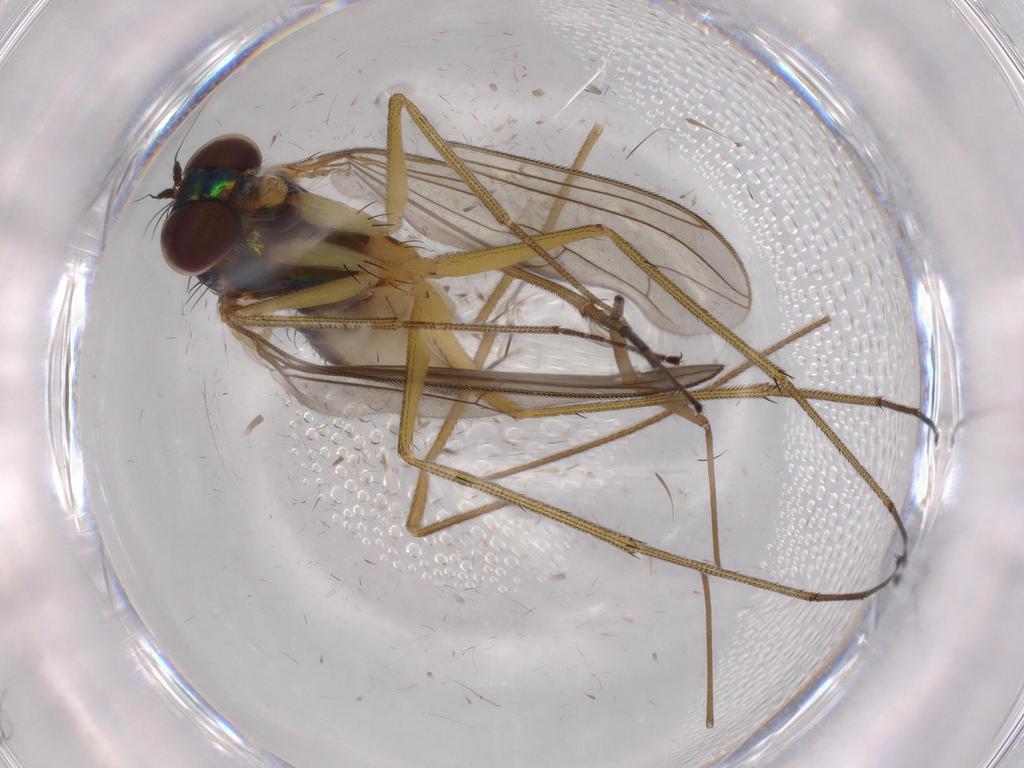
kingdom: Animalia
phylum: Arthropoda
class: Insecta
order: Diptera
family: Dolichopodidae
